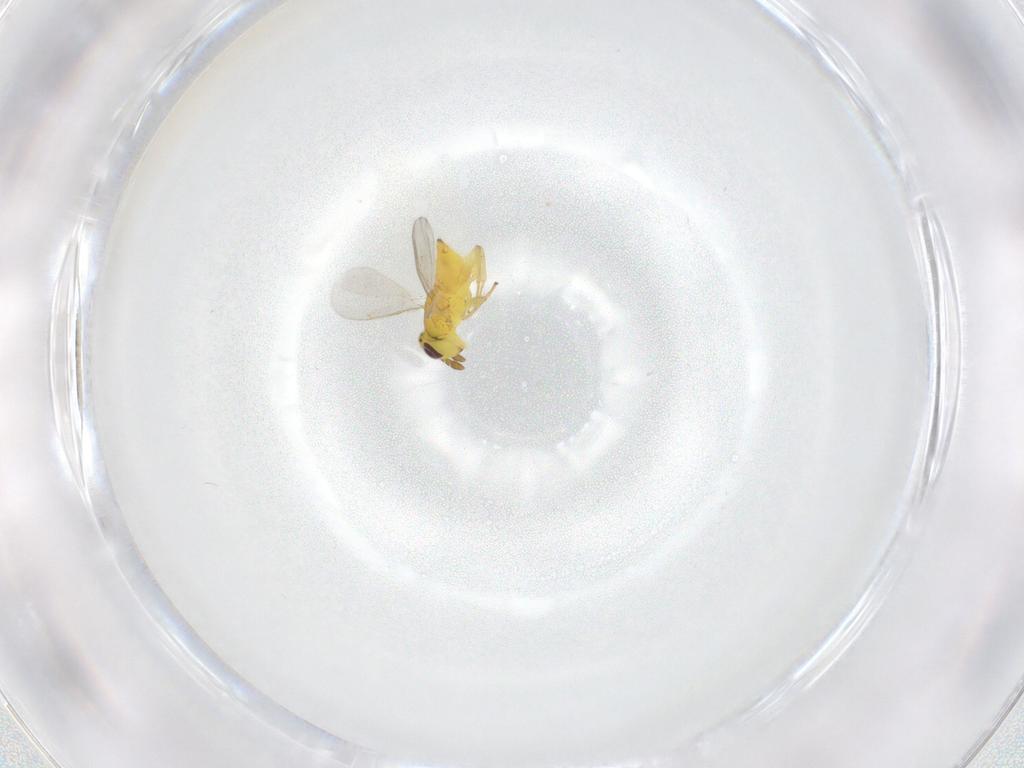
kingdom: Animalia
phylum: Arthropoda
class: Insecta
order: Hymenoptera
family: Aphelinidae
